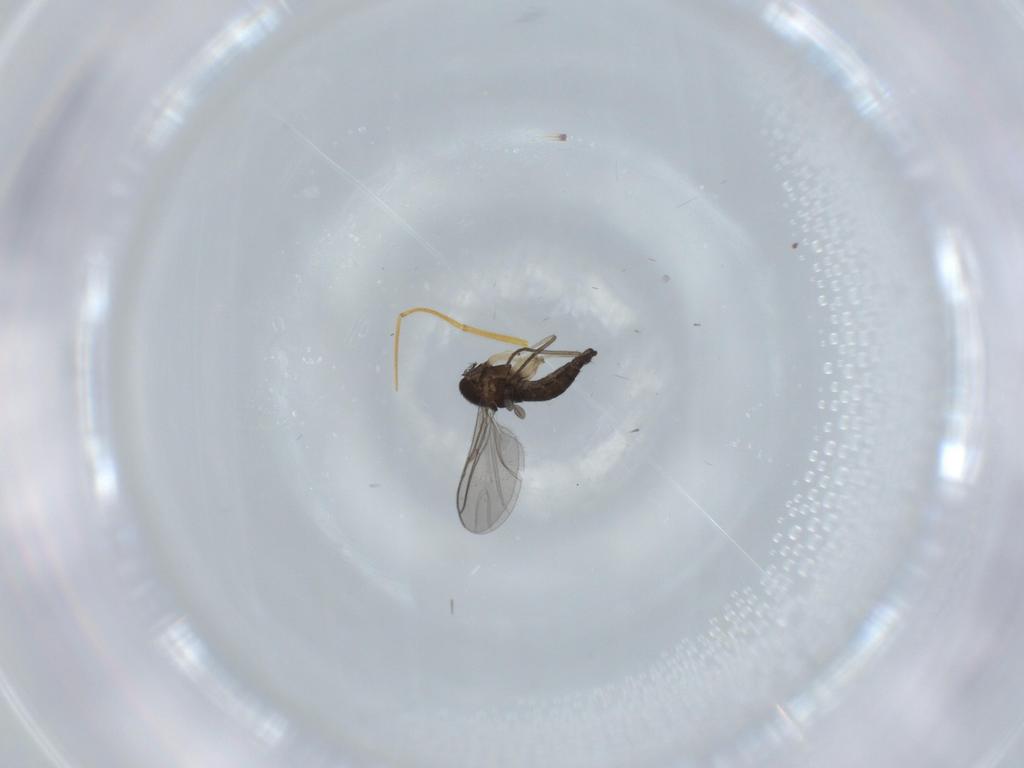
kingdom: Animalia
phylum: Arthropoda
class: Insecta
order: Diptera
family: Sciaridae
